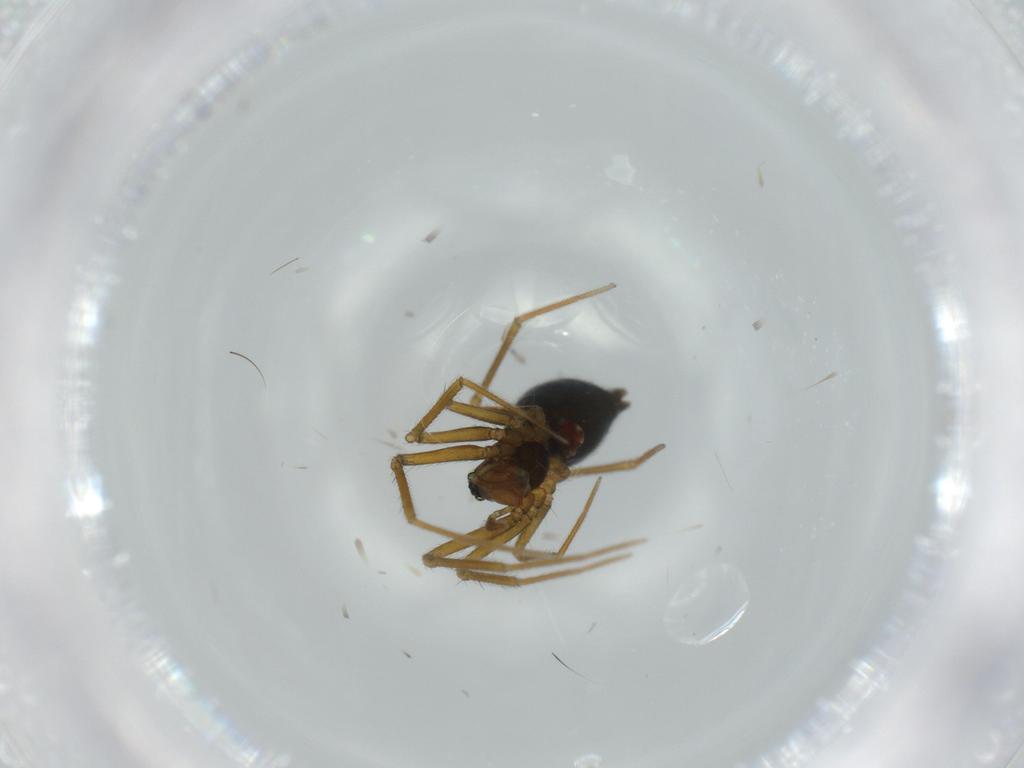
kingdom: Animalia
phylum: Arthropoda
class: Arachnida
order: Araneae
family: Linyphiidae
